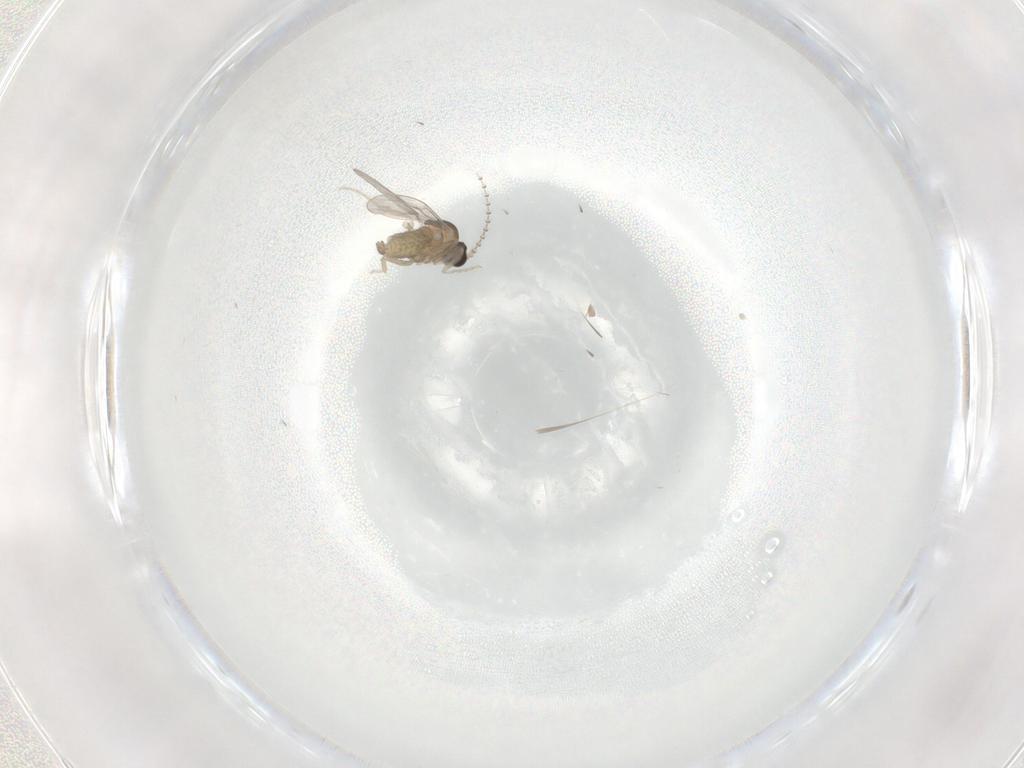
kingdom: Animalia
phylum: Arthropoda
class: Insecta
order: Diptera
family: Cecidomyiidae
